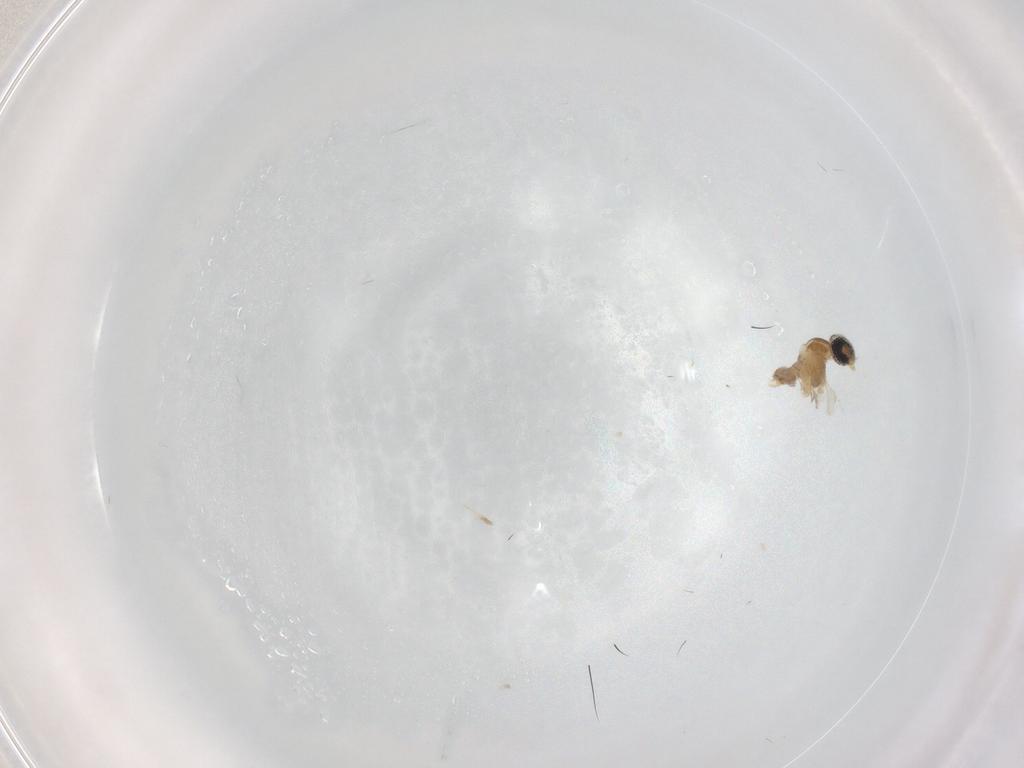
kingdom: Animalia
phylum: Arthropoda
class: Insecta
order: Diptera
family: Cecidomyiidae
